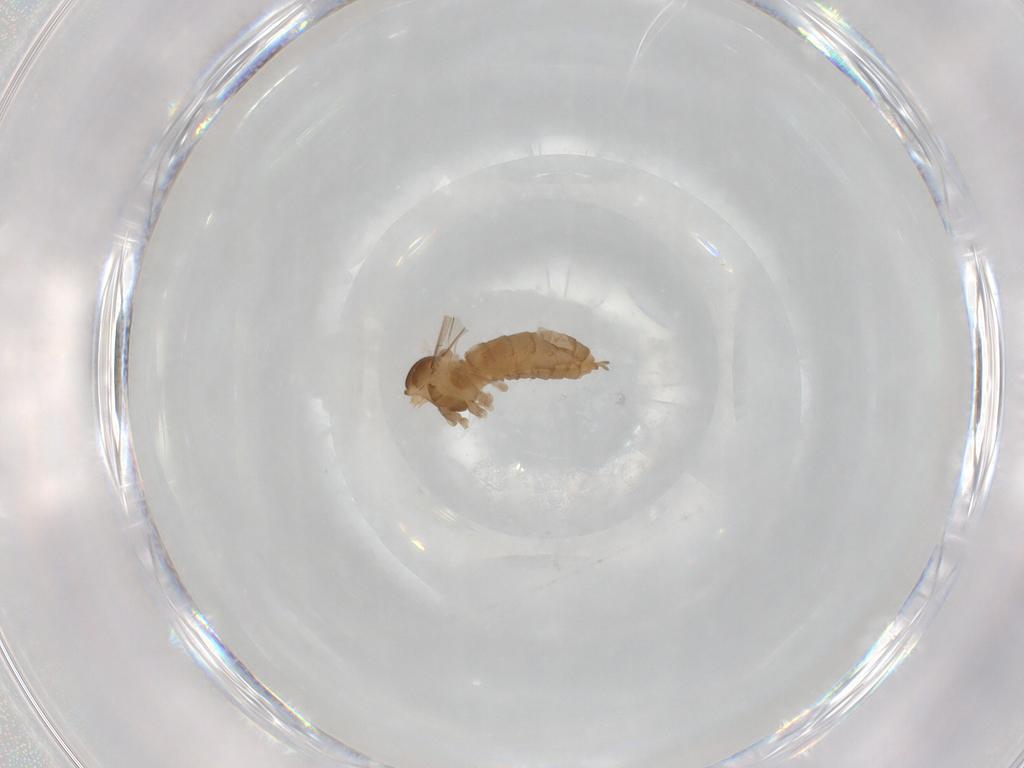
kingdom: Animalia
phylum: Arthropoda
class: Insecta
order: Diptera
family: Cecidomyiidae
